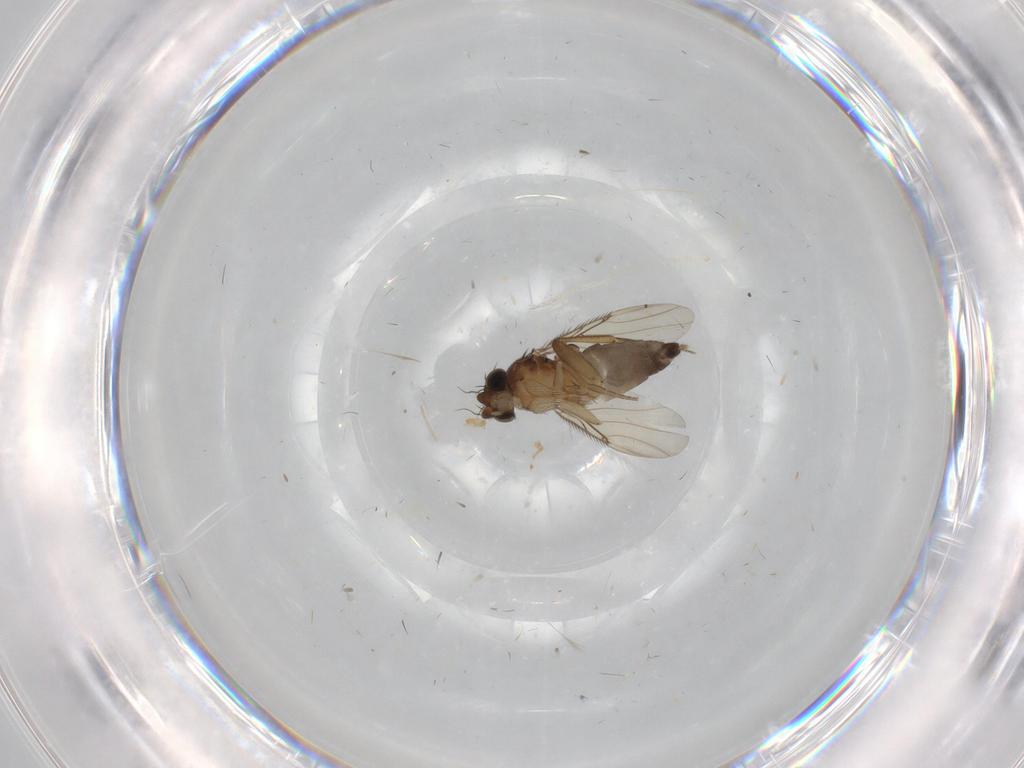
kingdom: Animalia
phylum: Arthropoda
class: Insecta
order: Diptera
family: Phoridae
